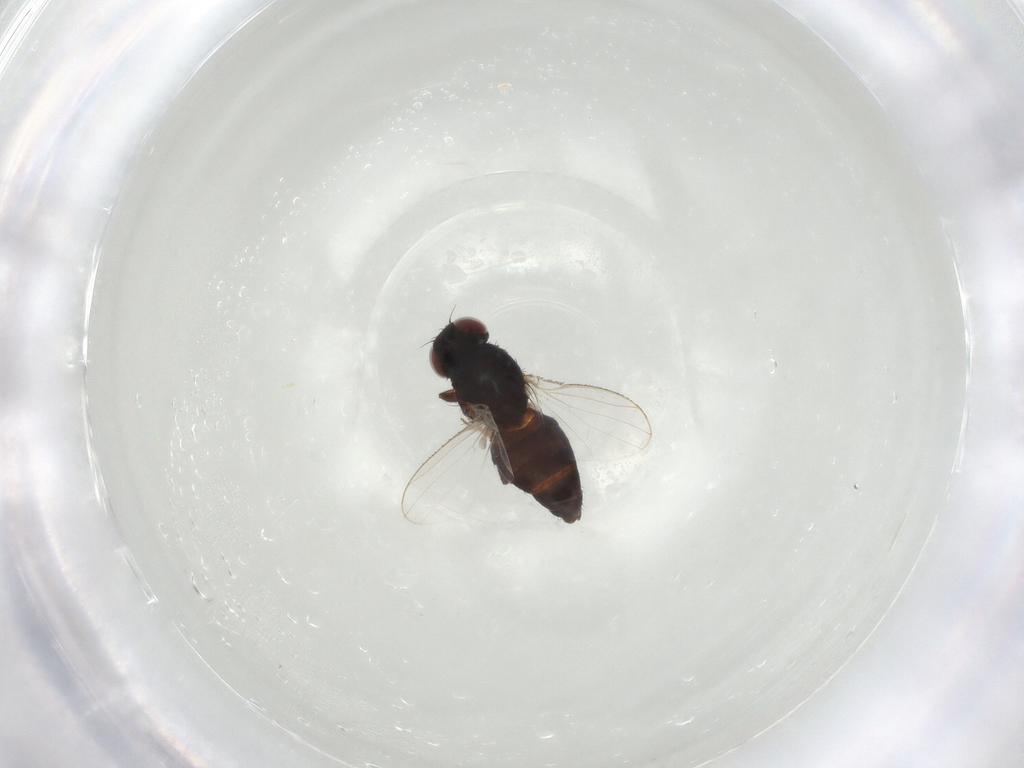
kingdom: Animalia
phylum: Arthropoda
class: Insecta
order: Diptera
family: Carnidae
